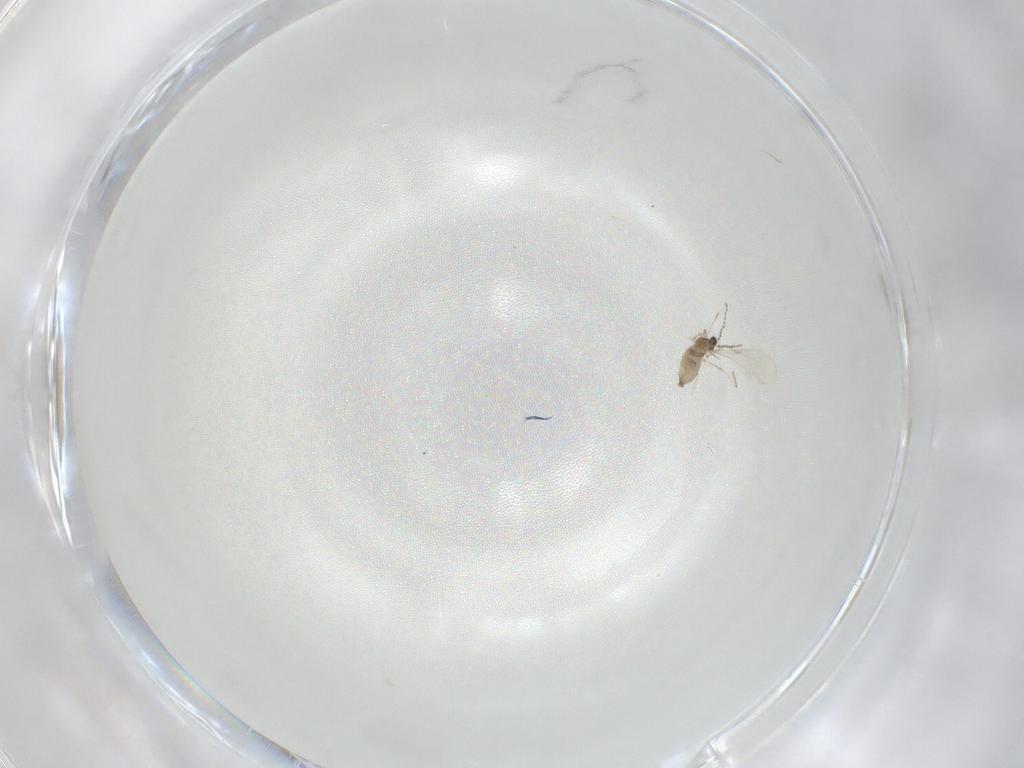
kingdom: Animalia
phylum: Arthropoda
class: Insecta
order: Diptera
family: Cecidomyiidae
